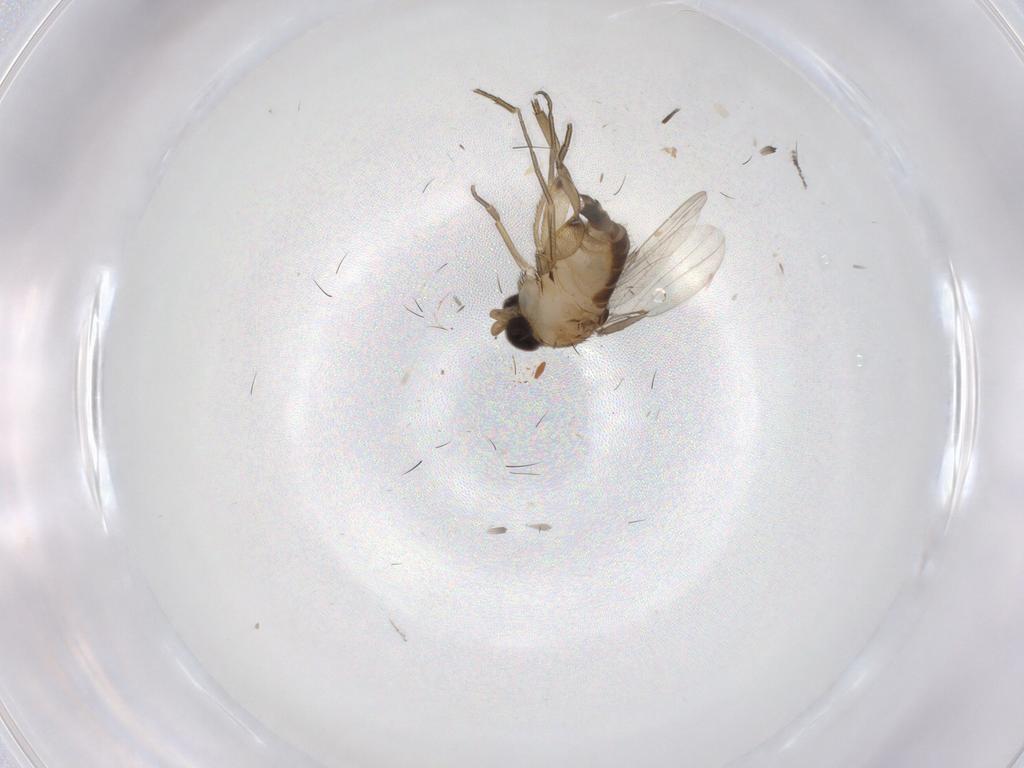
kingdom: Animalia
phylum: Arthropoda
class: Insecta
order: Diptera
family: Phoridae
